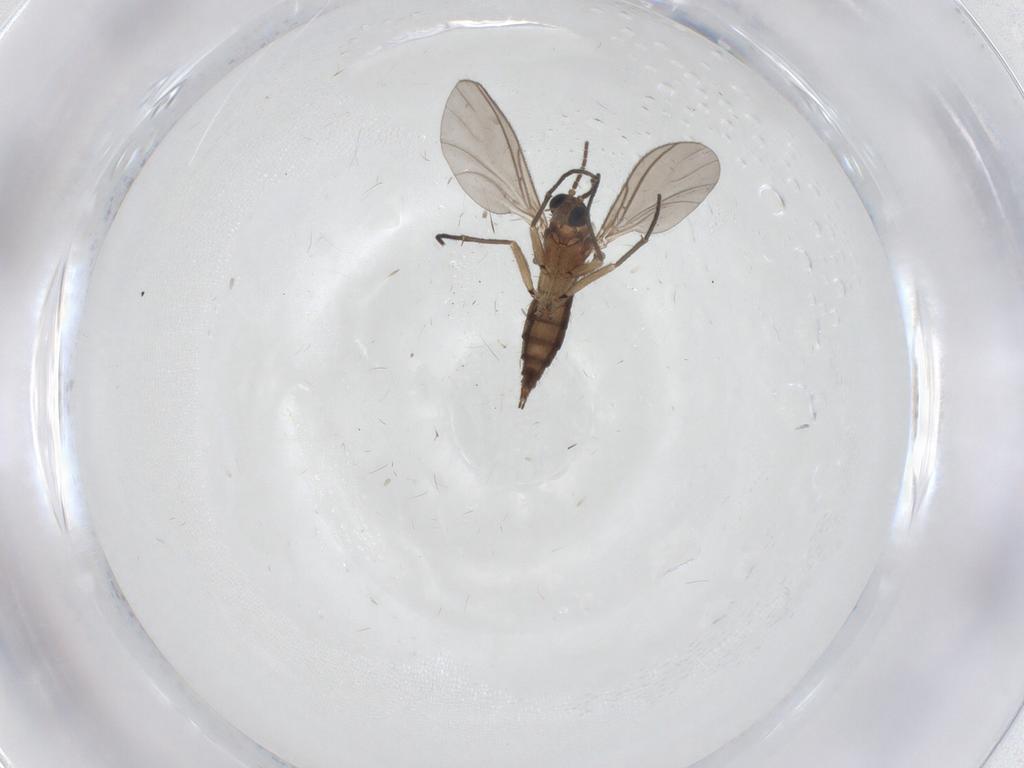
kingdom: Animalia
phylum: Arthropoda
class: Insecta
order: Diptera
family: Sciaridae
